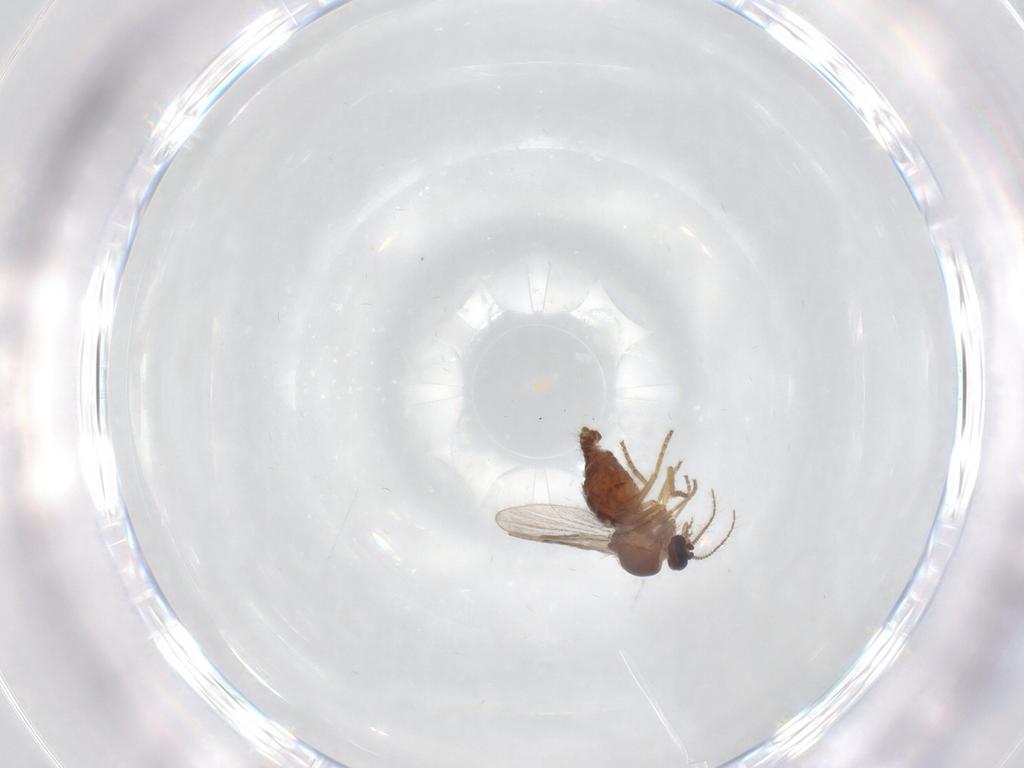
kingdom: Animalia
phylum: Arthropoda
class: Insecta
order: Diptera
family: Ceratopogonidae
